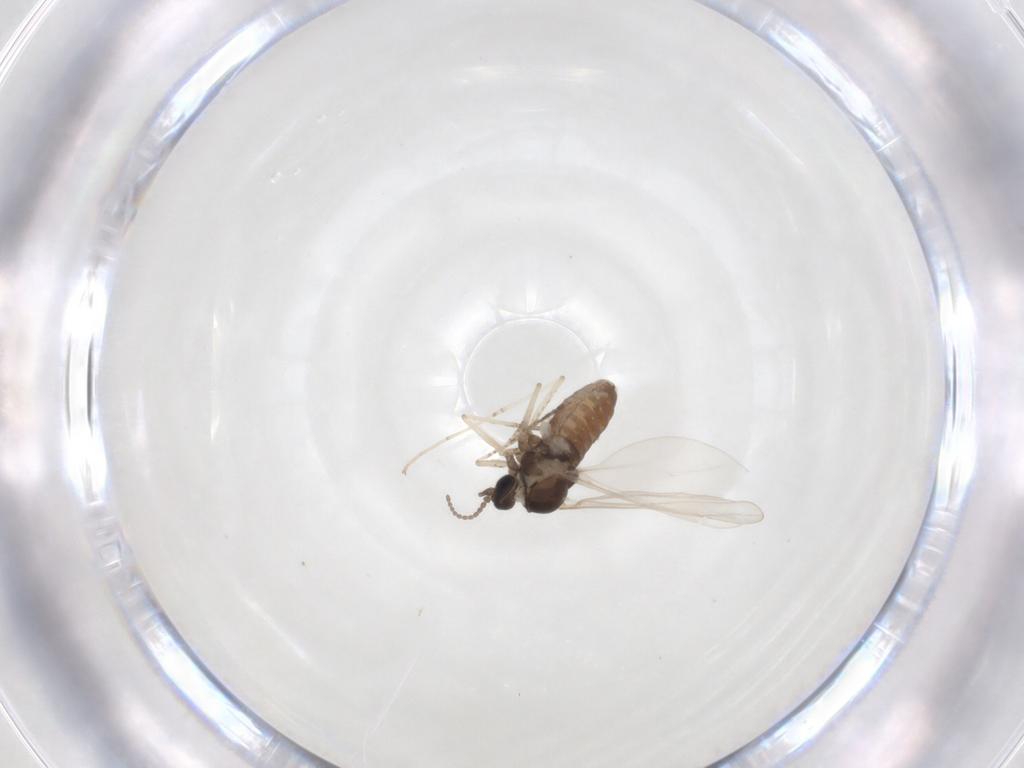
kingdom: Animalia
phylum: Arthropoda
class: Insecta
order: Diptera
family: Cecidomyiidae
